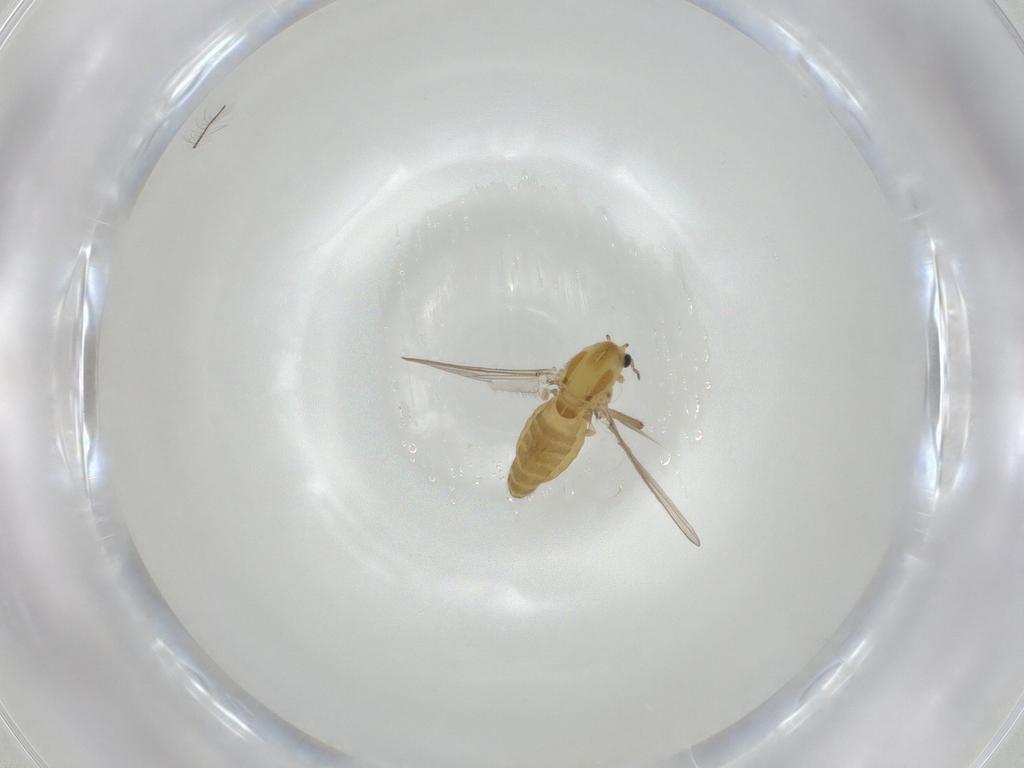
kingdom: Animalia
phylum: Arthropoda
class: Insecta
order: Diptera
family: Chironomidae
